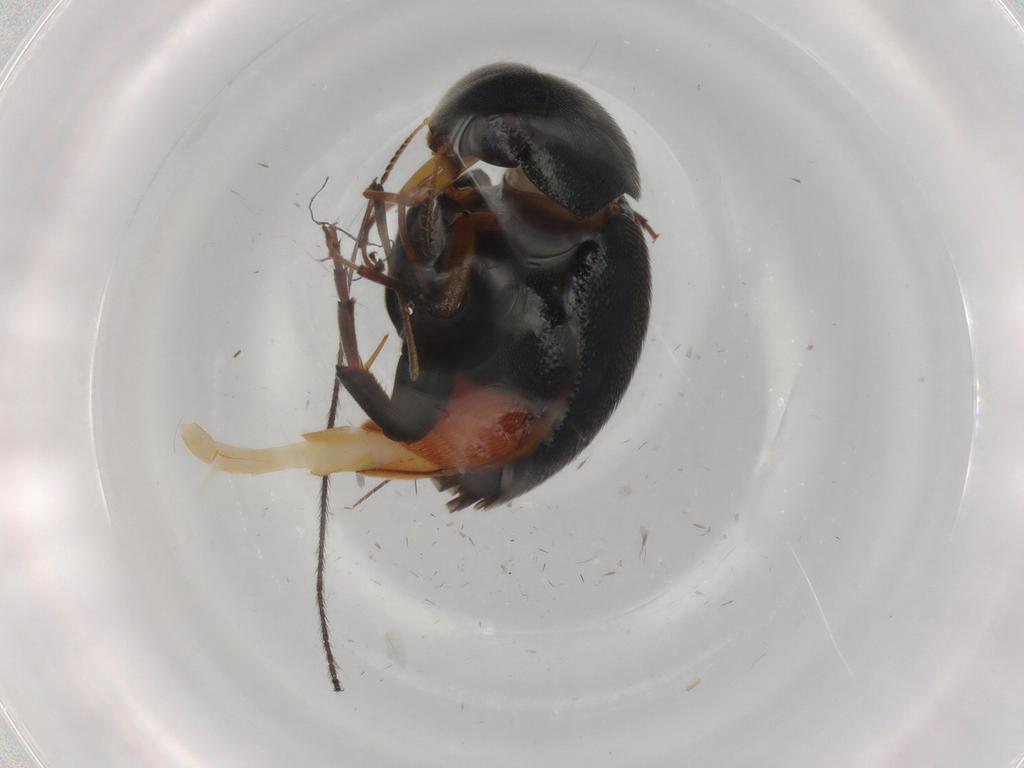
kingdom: Animalia
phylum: Arthropoda
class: Insecta
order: Coleoptera
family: Mordellidae
